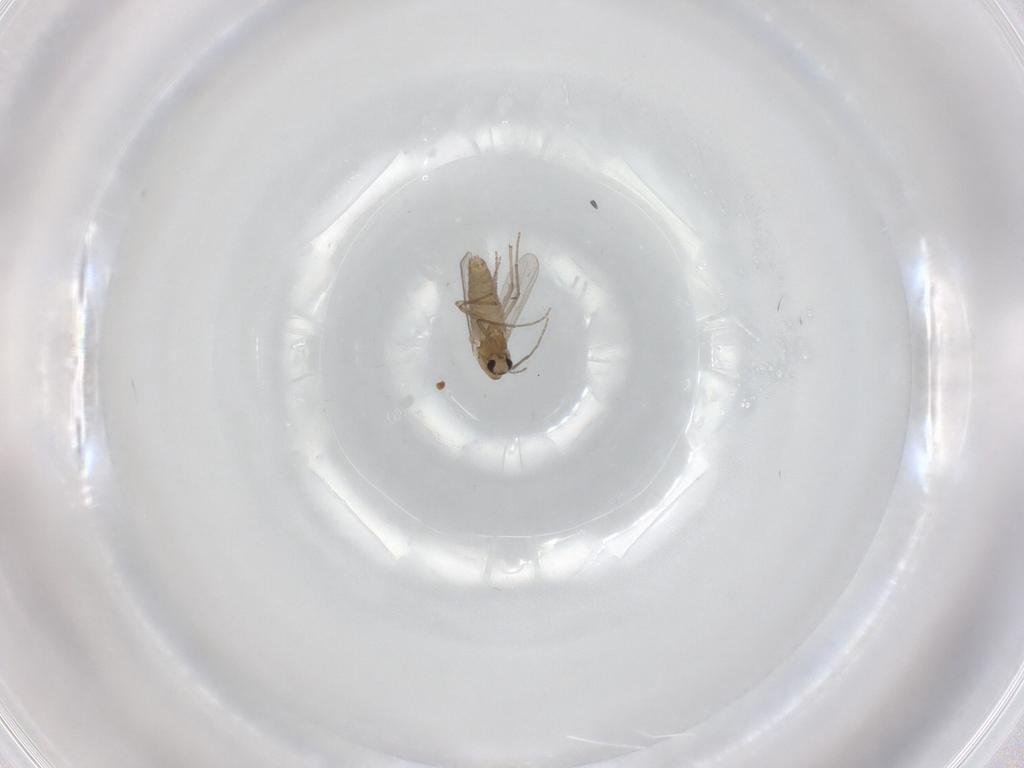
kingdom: Animalia
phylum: Arthropoda
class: Insecta
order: Diptera
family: Chironomidae
